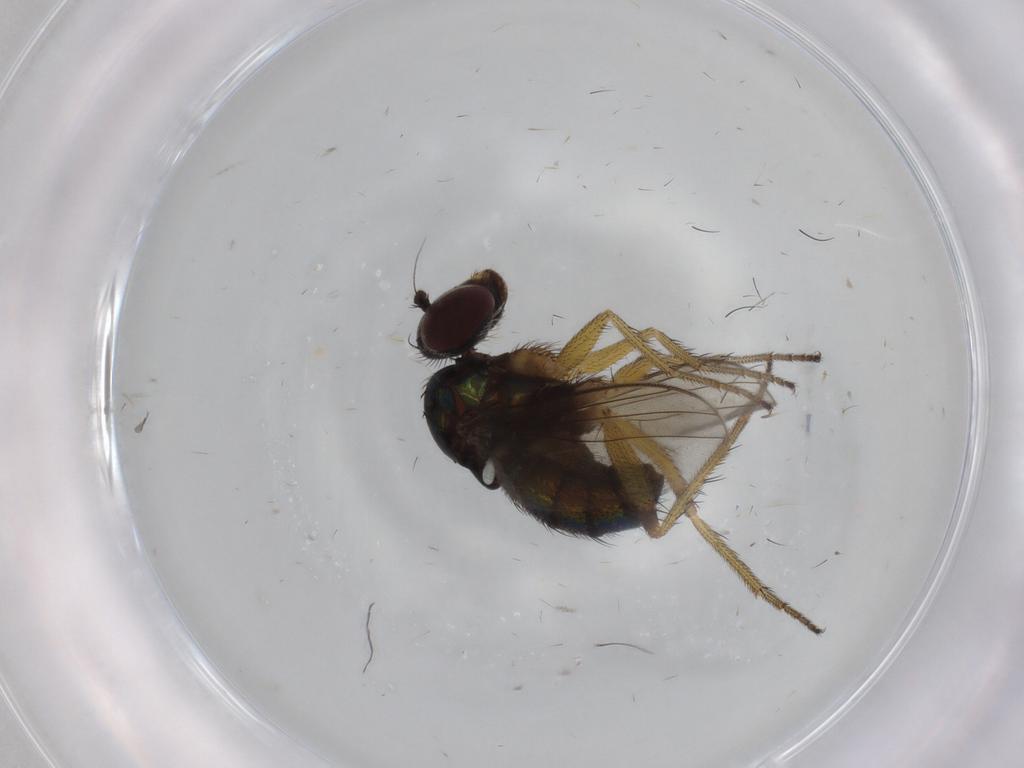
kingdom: Animalia
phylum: Arthropoda
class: Insecta
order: Diptera
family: Dolichopodidae
